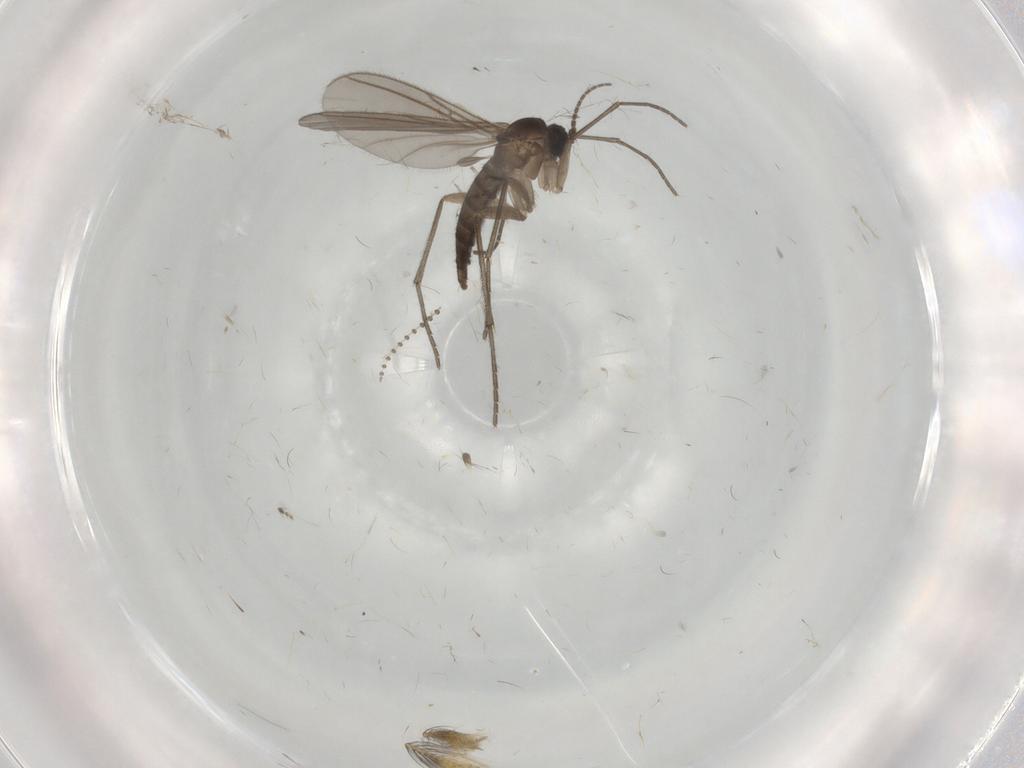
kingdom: Animalia
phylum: Arthropoda
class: Insecta
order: Diptera
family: Sciaridae
